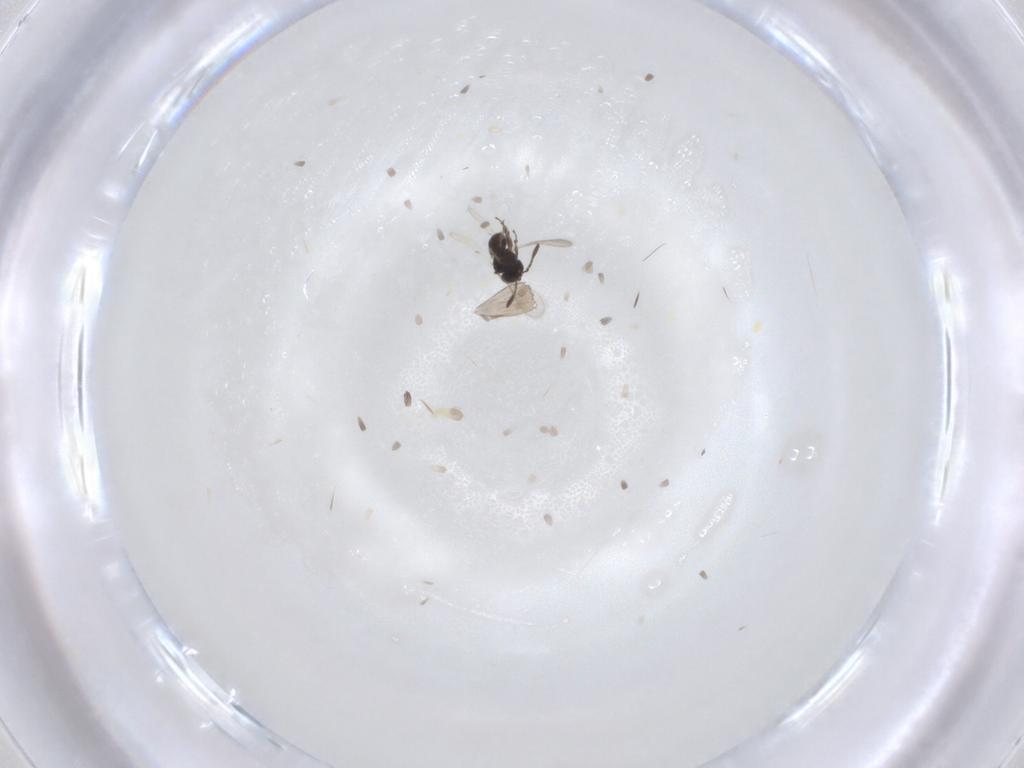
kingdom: Animalia
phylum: Arthropoda
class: Insecta
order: Hymenoptera
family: Scelionidae
